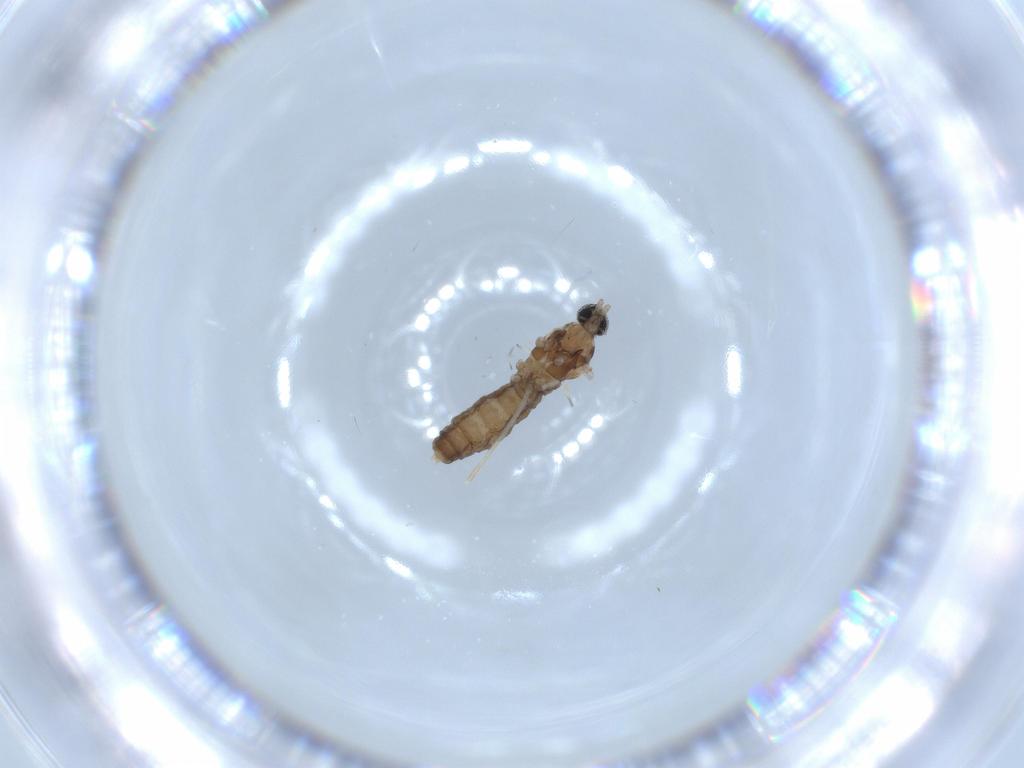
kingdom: Animalia
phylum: Arthropoda
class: Insecta
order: Diptera
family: Cecidomyiidae
